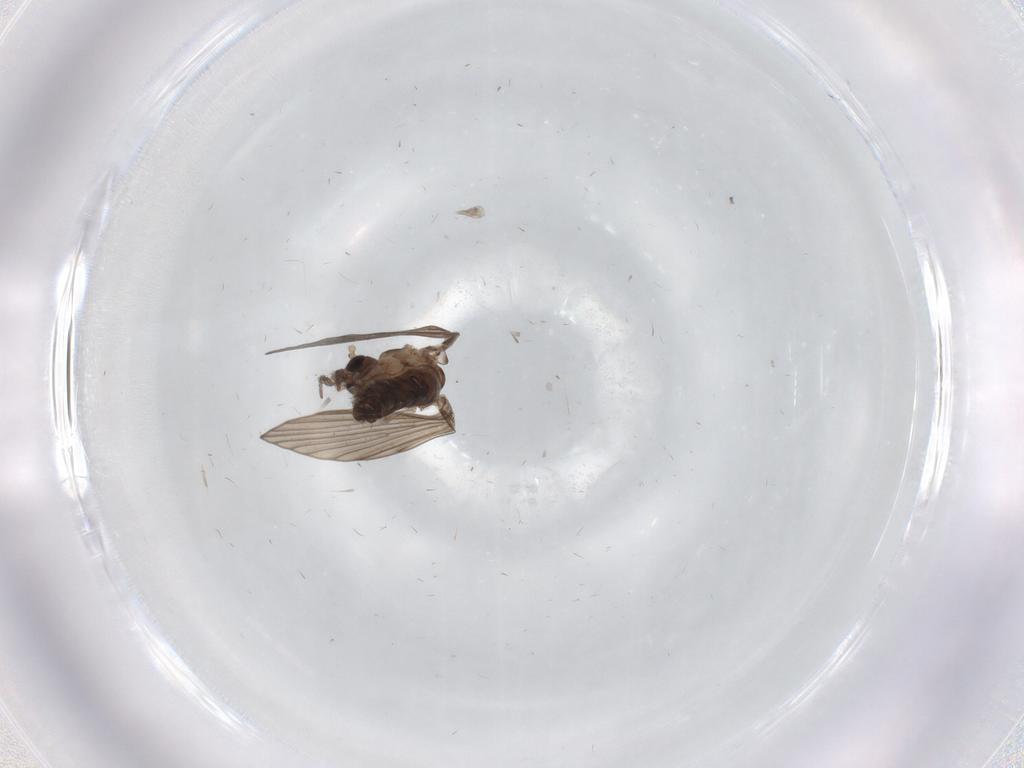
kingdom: Animalia
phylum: Arthropoda
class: Insecta
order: Diptera
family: Psychodidae
